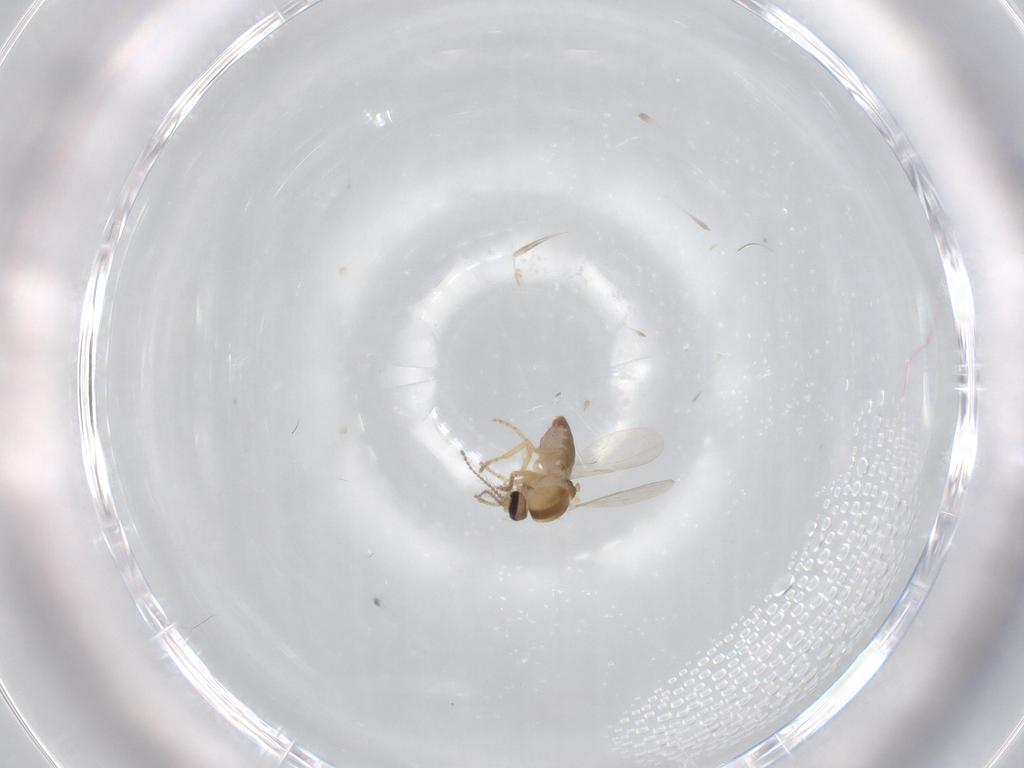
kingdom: Animalia
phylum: Arthropoda
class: Insecta
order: Diptera
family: Ceratopogonidae
